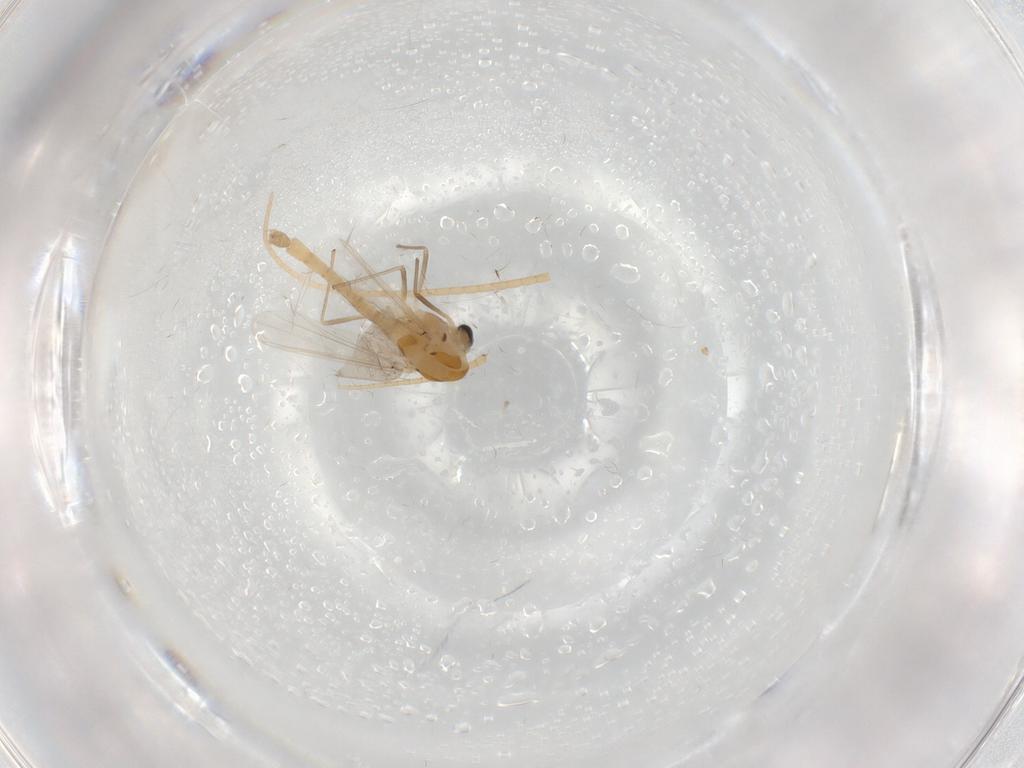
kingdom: Animalia
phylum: Arthropoda
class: Insecta
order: Diptera
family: Chironomidae
